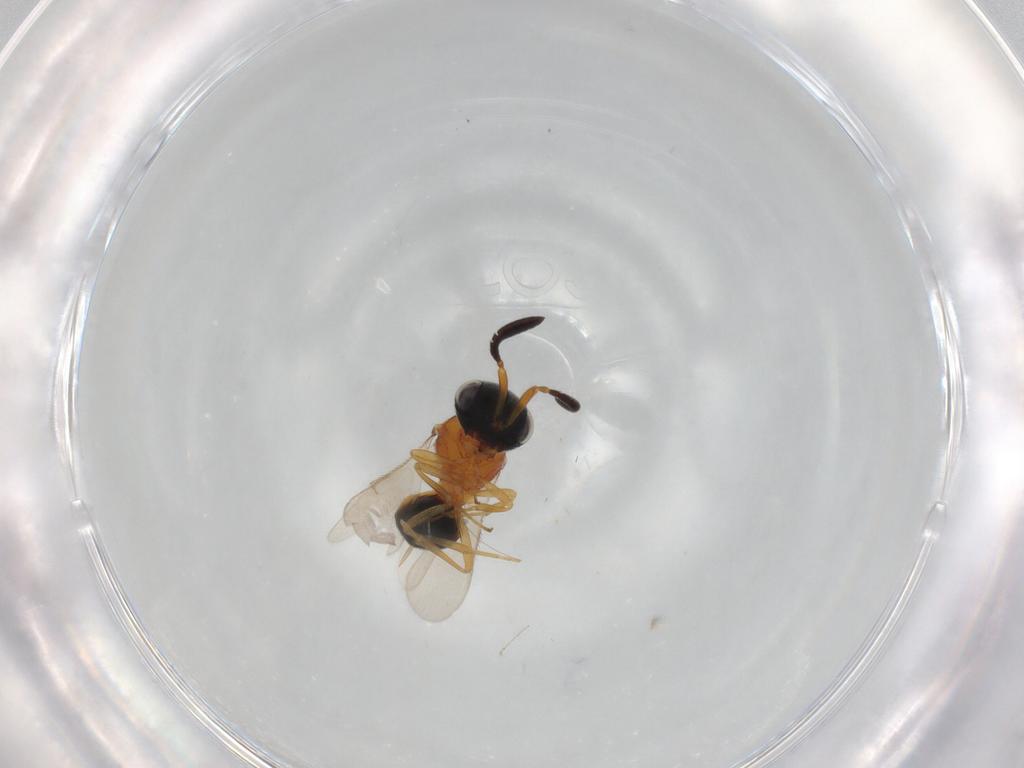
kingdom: Animalia
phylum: Arthropoda
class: Insecta
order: Hymenoptera
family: Scelionidae
